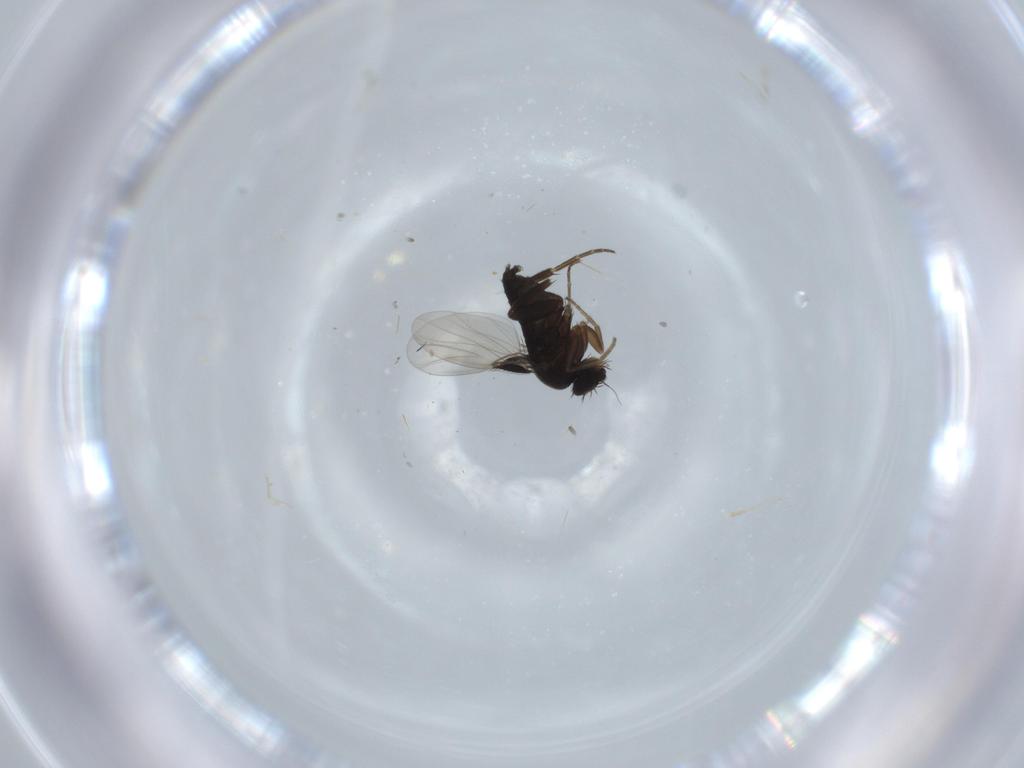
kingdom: Animalia
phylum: Arthropoda
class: Insecta
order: Diptera
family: Phoridae
